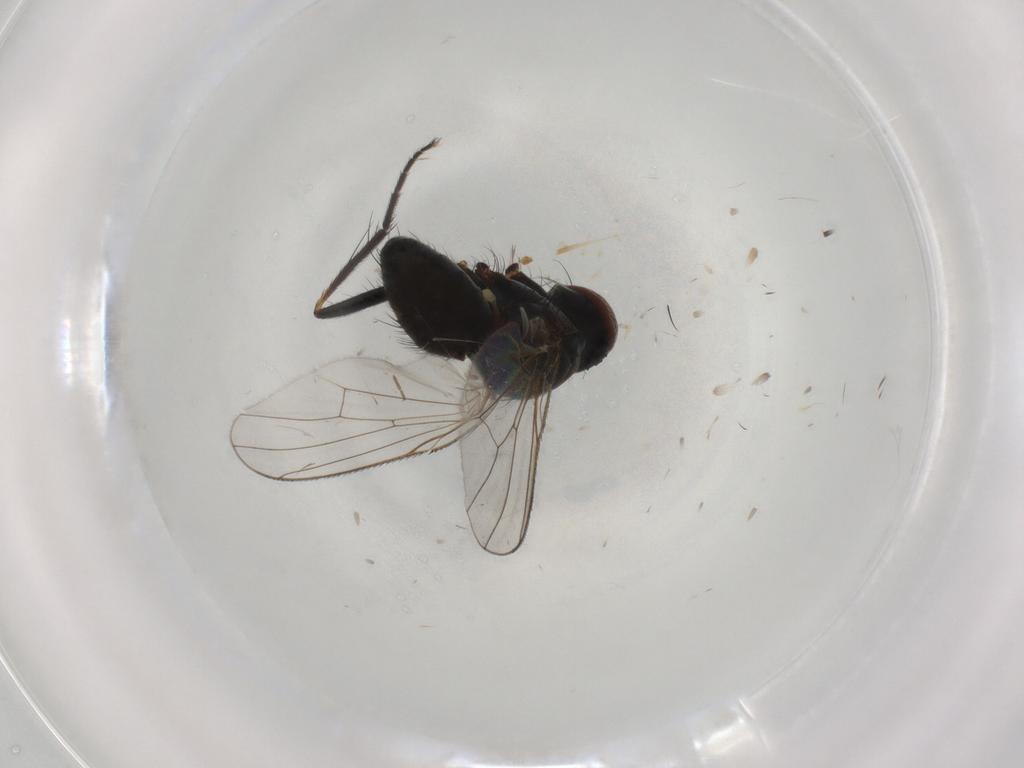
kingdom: Animalia
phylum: Arthropoda
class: Insecta
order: Diptera
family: Muscidae
